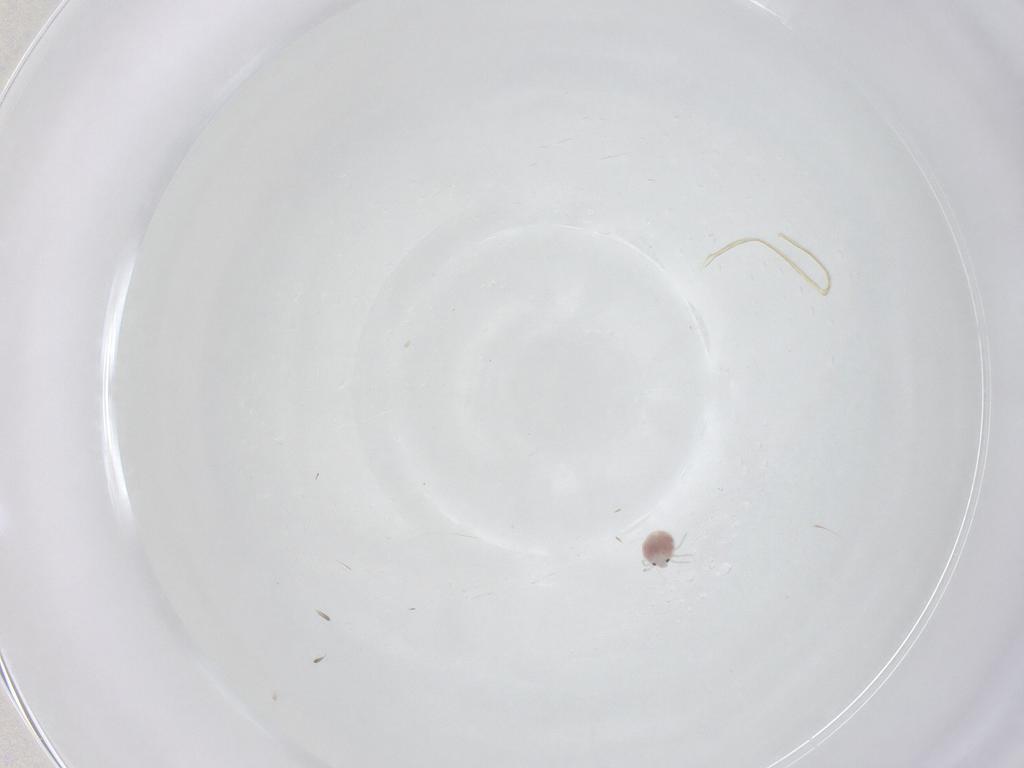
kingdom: Animalia
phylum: Arthropoda
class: Arachnida
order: Trombidiformes
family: Pionidae
